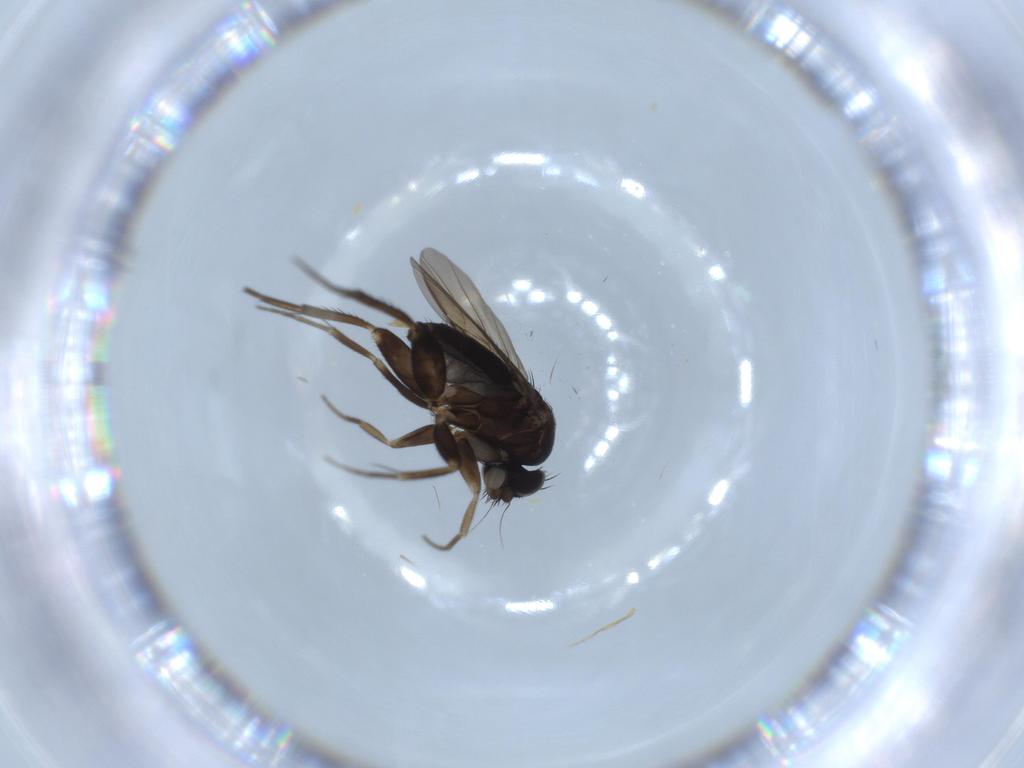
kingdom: Animalia
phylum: Arthropoda
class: Insecta
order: Diptera
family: Phoridae
